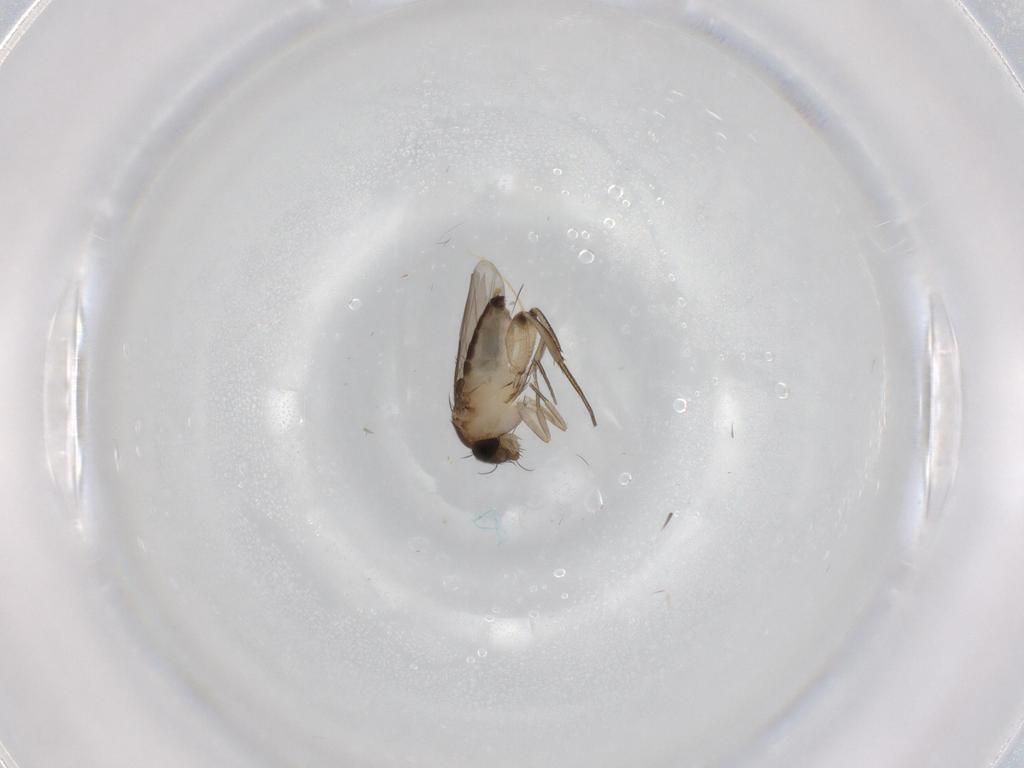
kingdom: Animalia
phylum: Arthropoda
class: Insecta
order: Diptera
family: Phoridae
